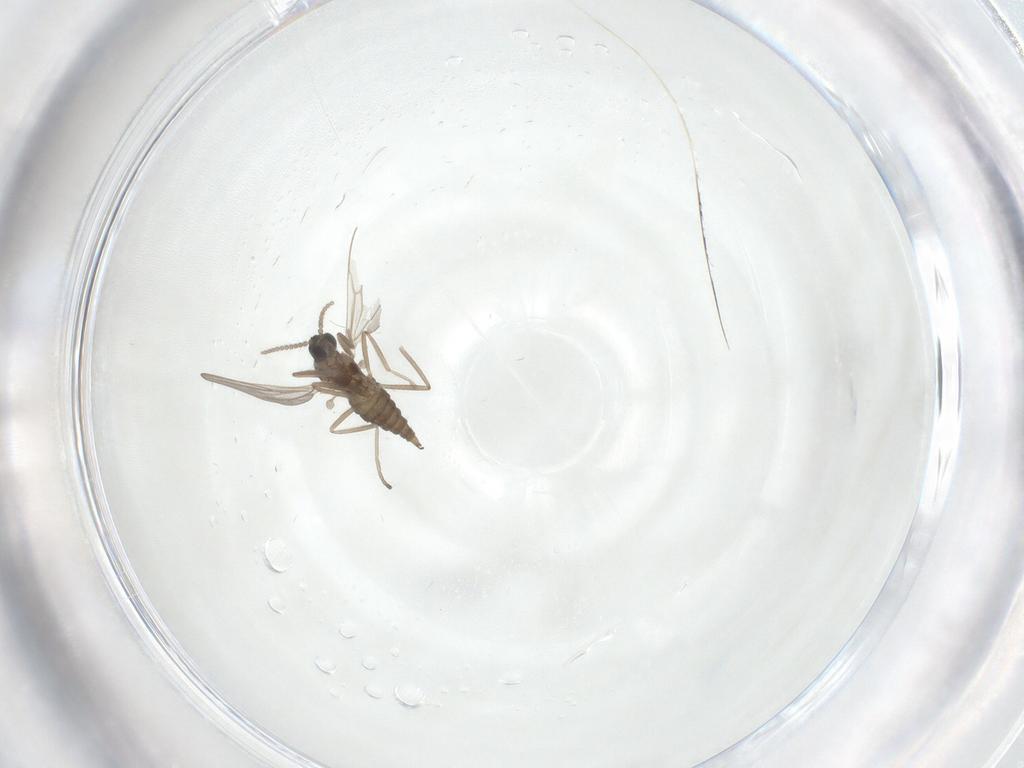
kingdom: Animalia
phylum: Arthropoda
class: Insecta
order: Diptera
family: Cecidomyiidae
